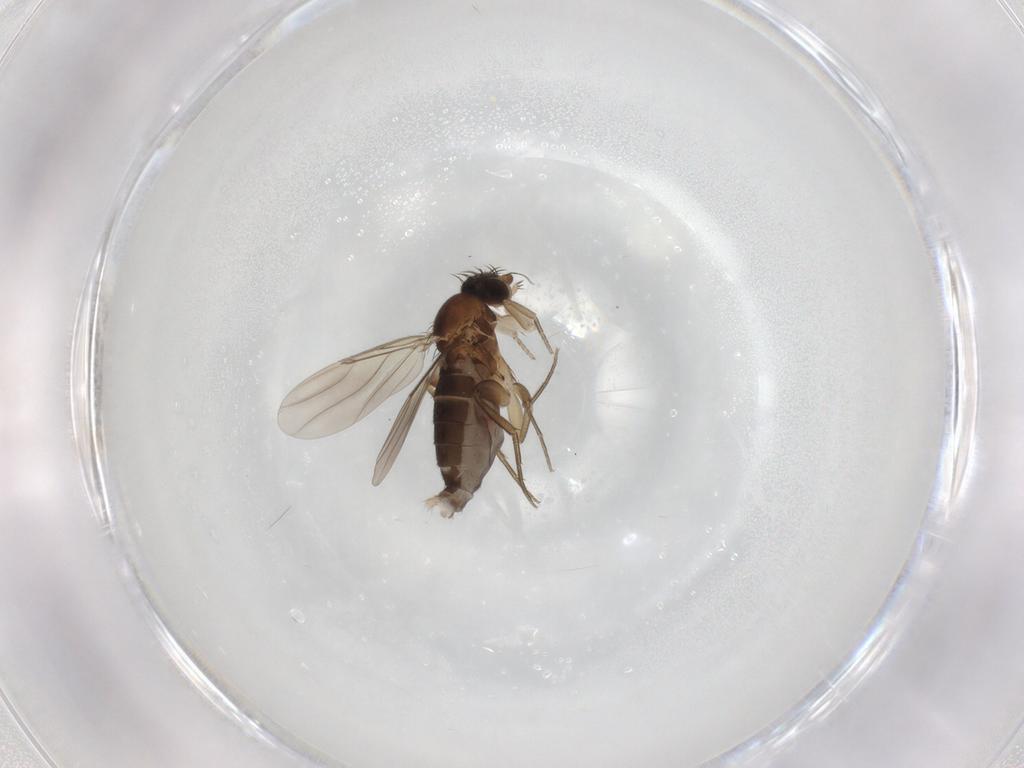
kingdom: Animalia
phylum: Arthropoda
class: Insecta
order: Diptera
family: Phoridae
